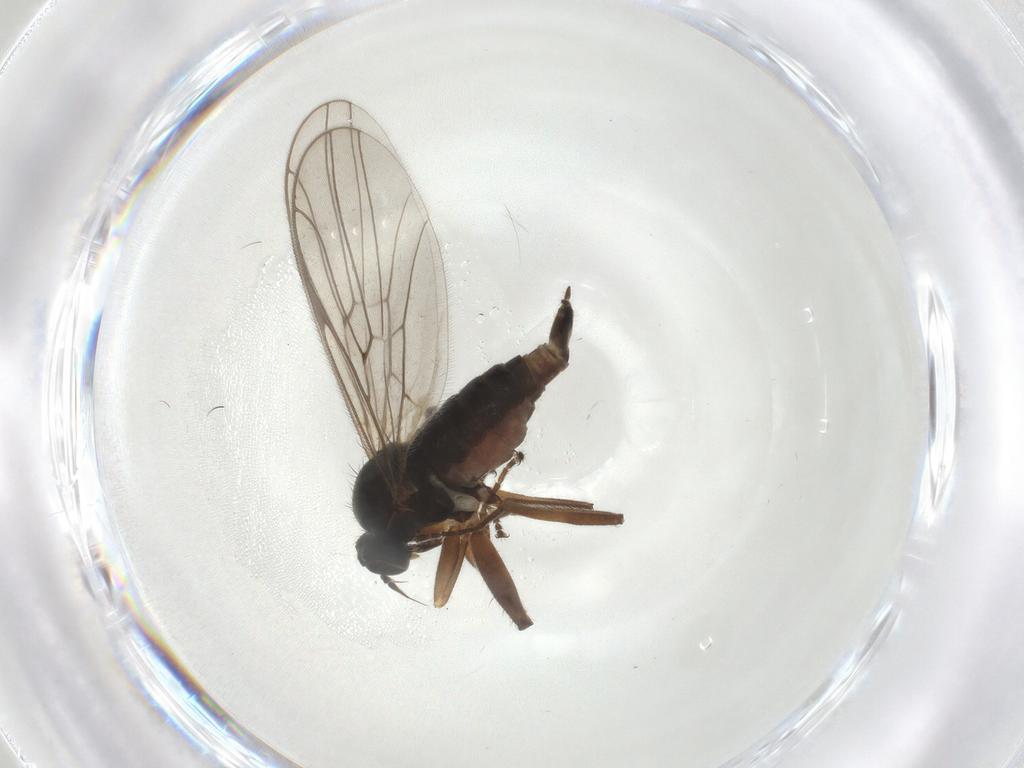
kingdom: Animalia
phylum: Arthropoda
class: Insecta
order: Diptera
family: Hybotidae
